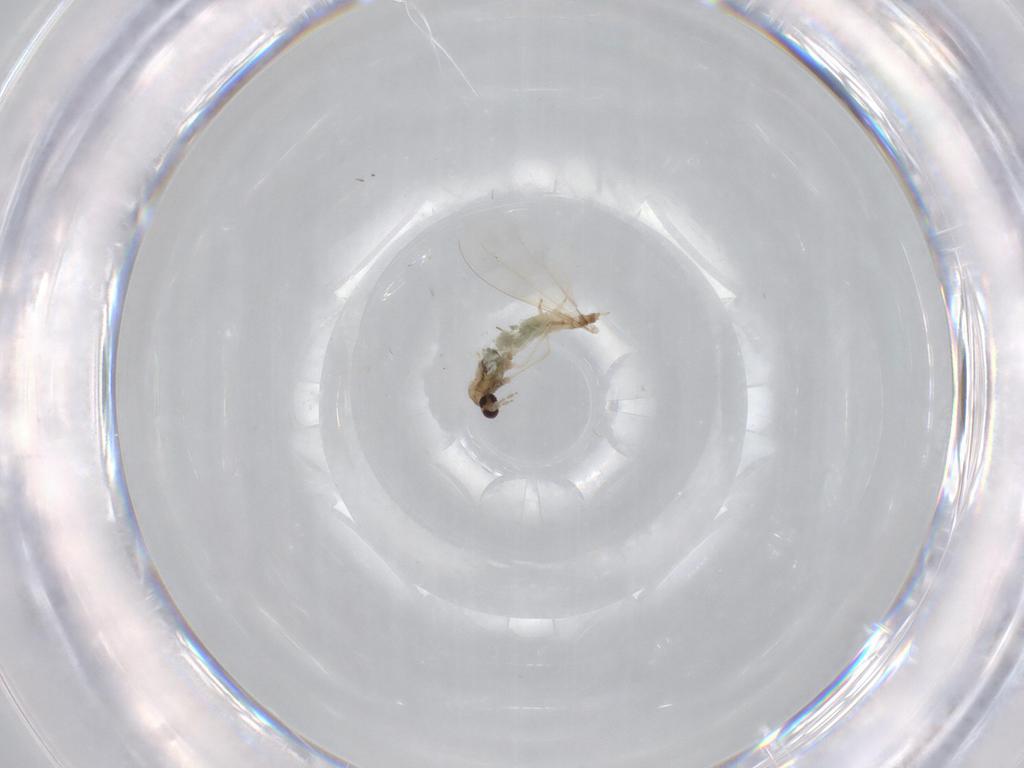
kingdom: Animalia
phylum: Arthropoda
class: Insecta
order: Diptera
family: Cecidomyiidae
